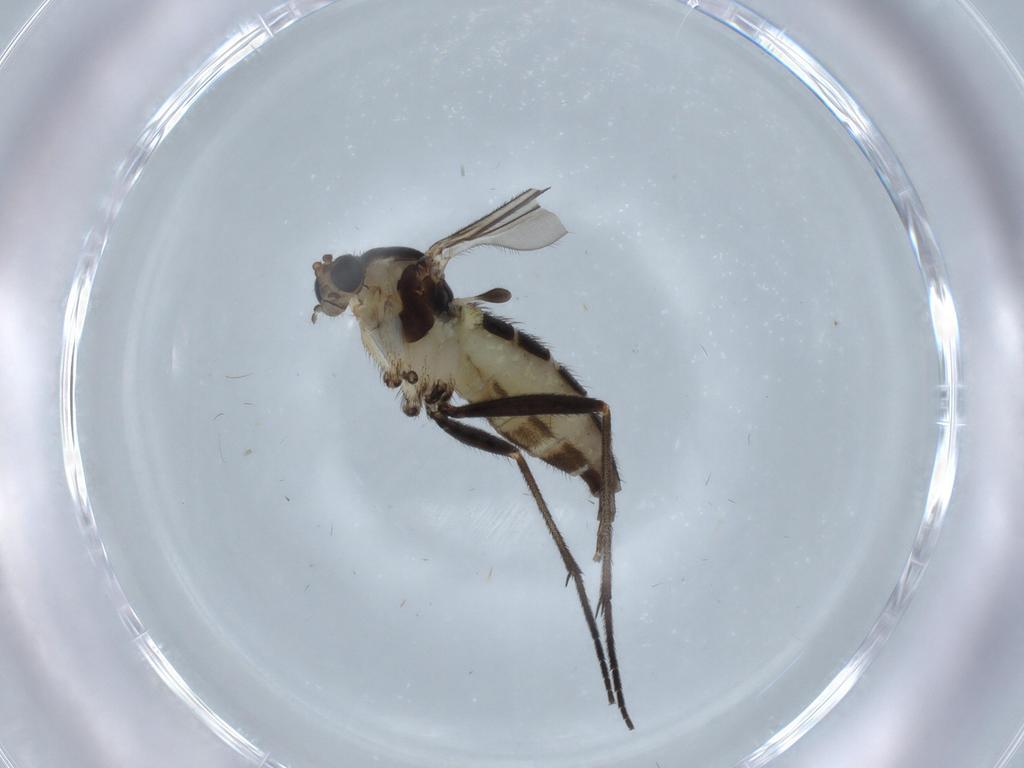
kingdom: Animalia
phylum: Arthropoda
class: Insecta
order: Diptera
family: Sciaridae
